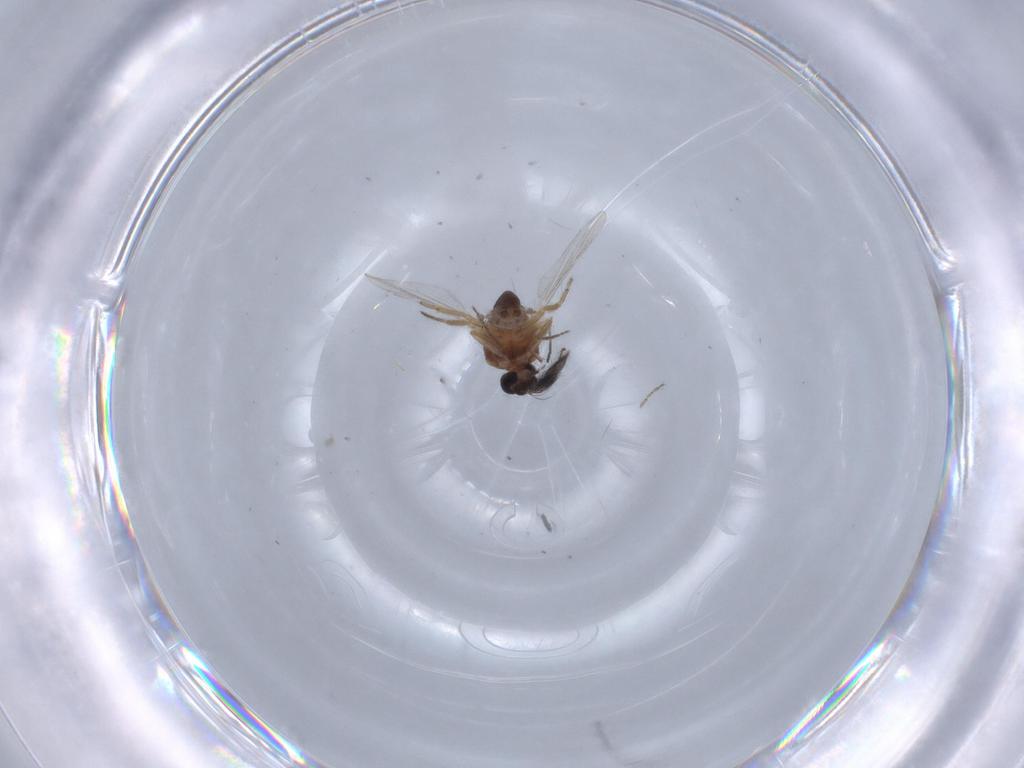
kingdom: Animalia
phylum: Arthropoda
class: Insecta
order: Diptera
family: Ceratopogonidae
